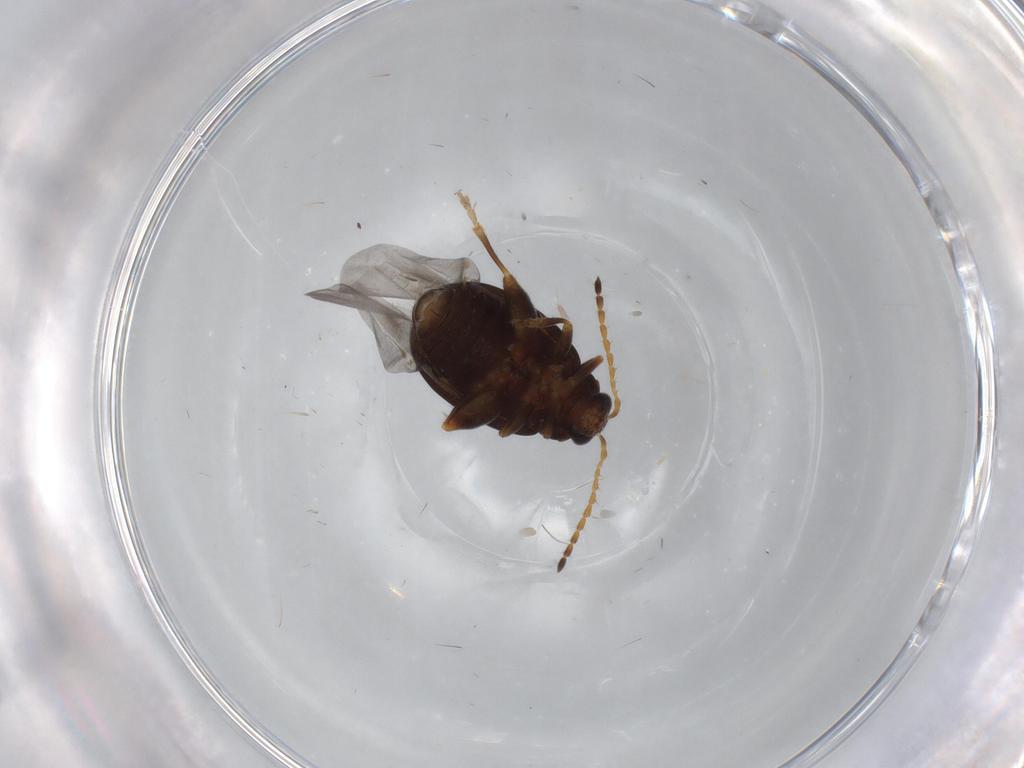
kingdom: Animalia
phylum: Arthropoda
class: Insecta
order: Coleoptera
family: Chrysomelidae
